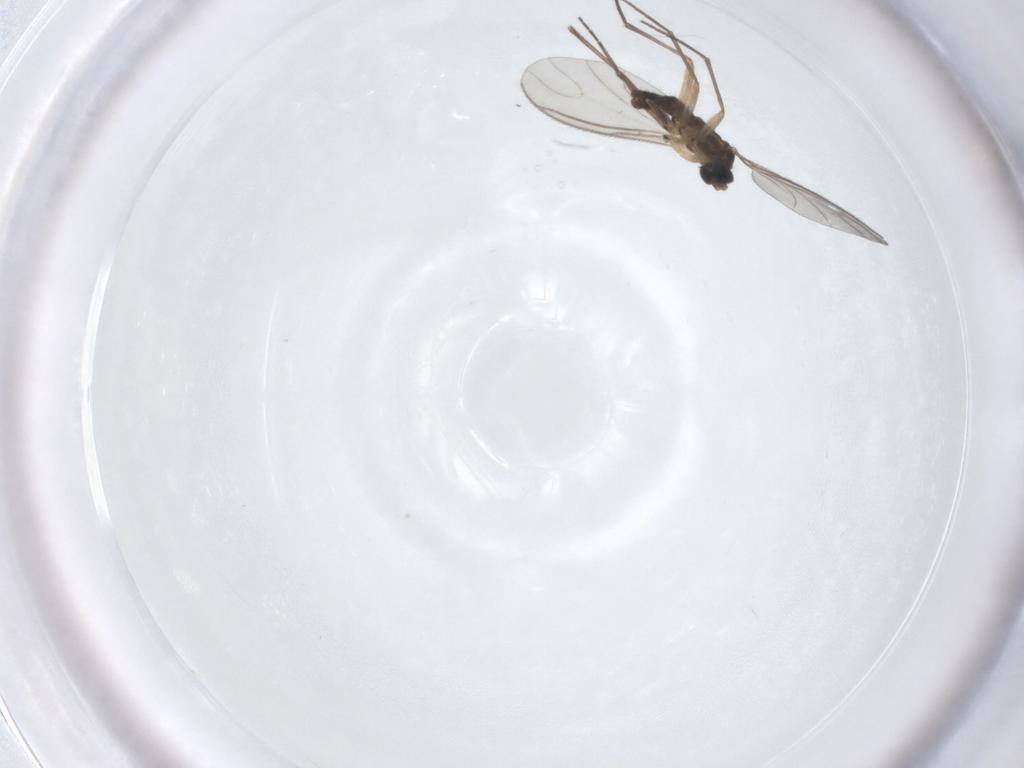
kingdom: Animalia
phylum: Arthropoda
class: Insecta
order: Diptera
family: Sciaridae
